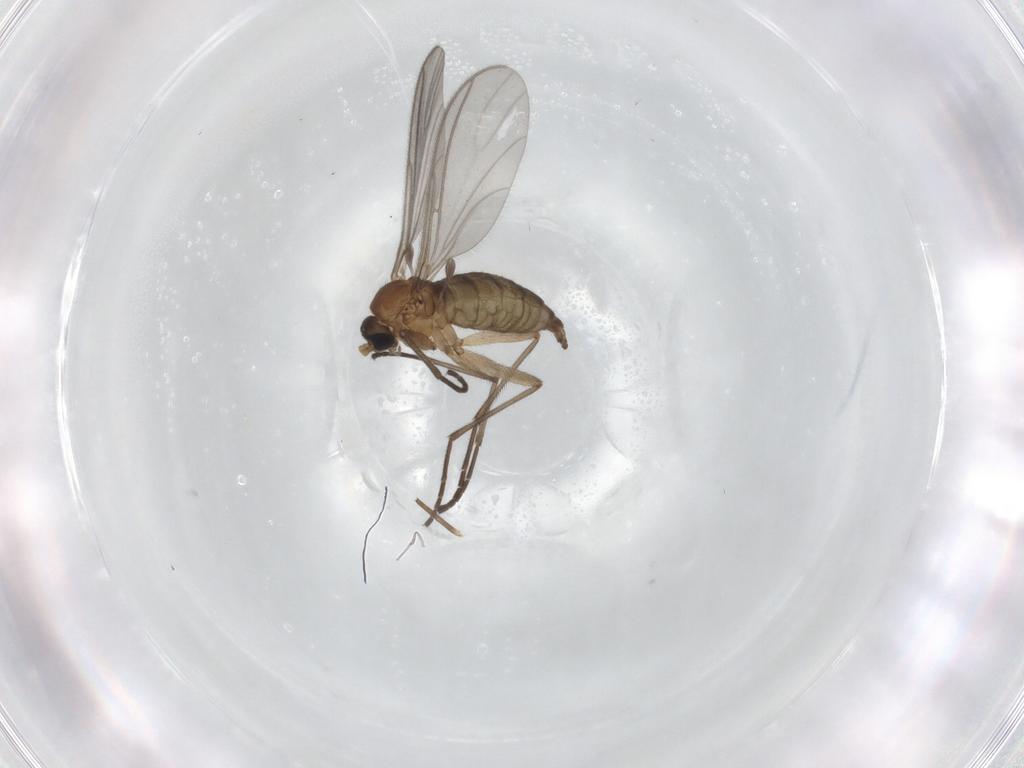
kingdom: Animalia
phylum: Arthropoda
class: Insecta
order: Diptera
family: Sciaridae
